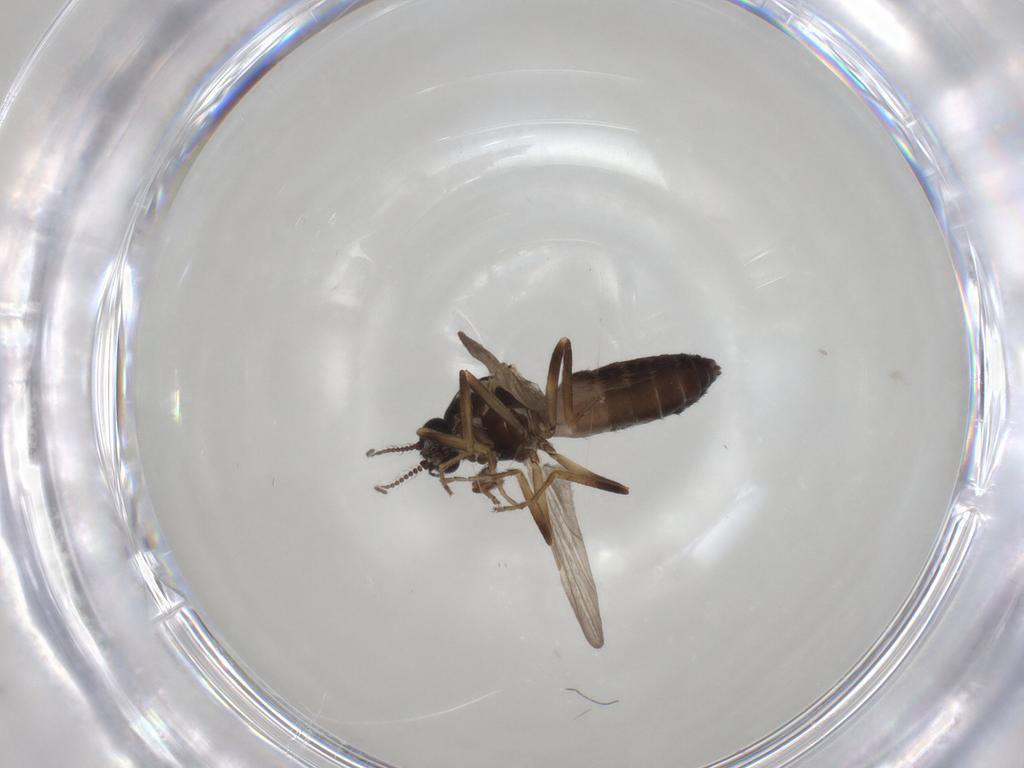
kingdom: Animalia
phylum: Arthropoda
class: Insecta
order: Diptera
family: Ceratopogonidae
